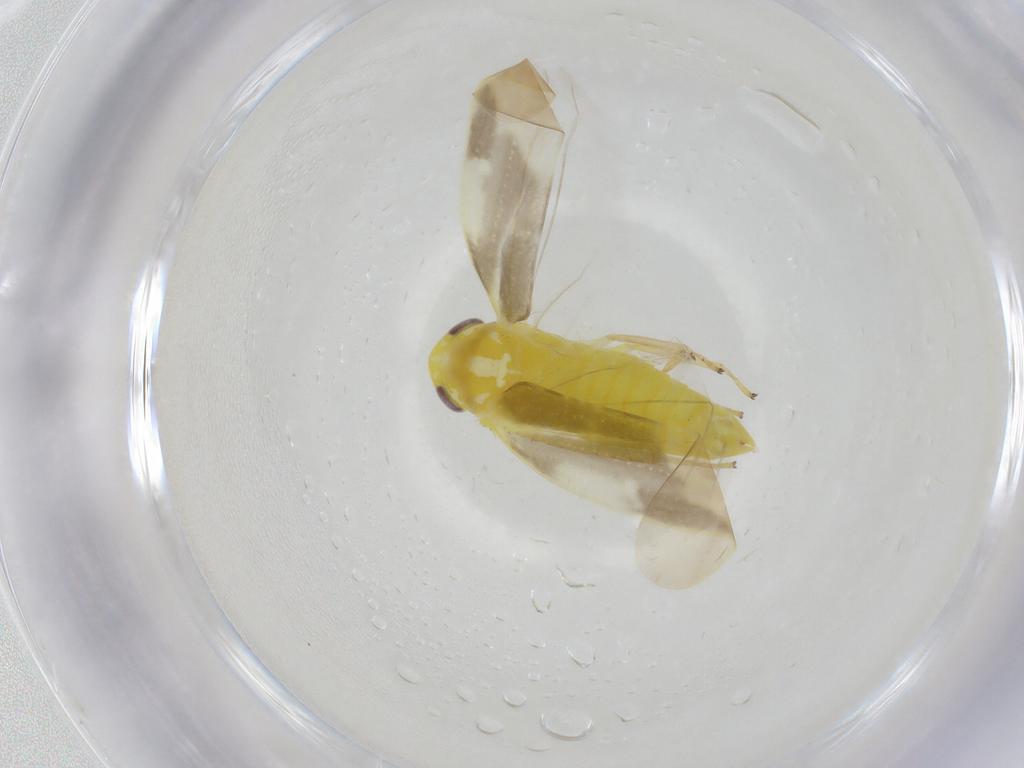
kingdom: Animalia
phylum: Arthropoda
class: Insecta
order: Hemiptera
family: Cicadellidae
